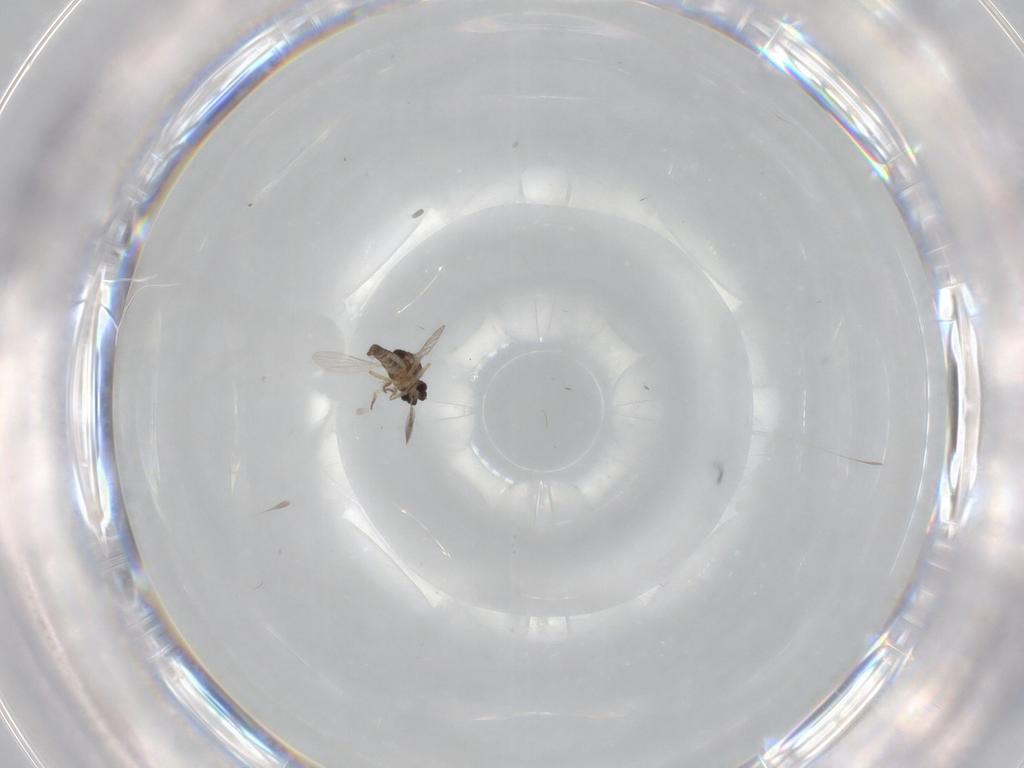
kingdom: Animalia
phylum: Arthropoda
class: Insecta
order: Diptera
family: Ceratopogonidae
